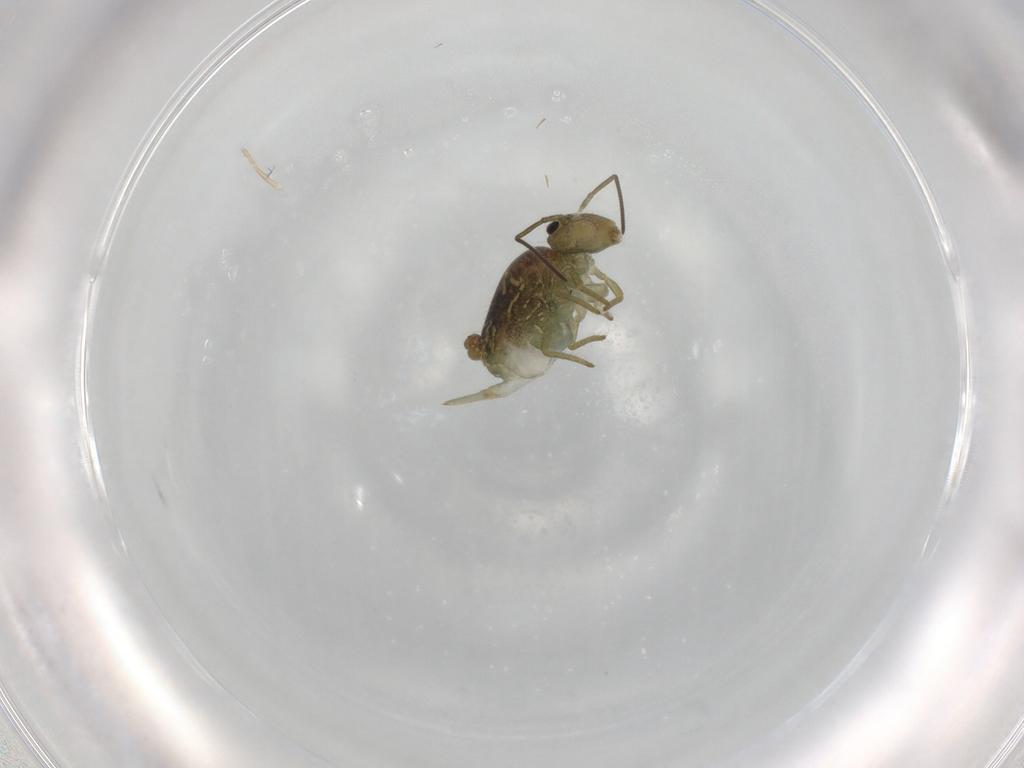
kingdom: Animalia
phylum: Arthropoda
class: Collembola
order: Symphypleona
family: Sminthuridae
